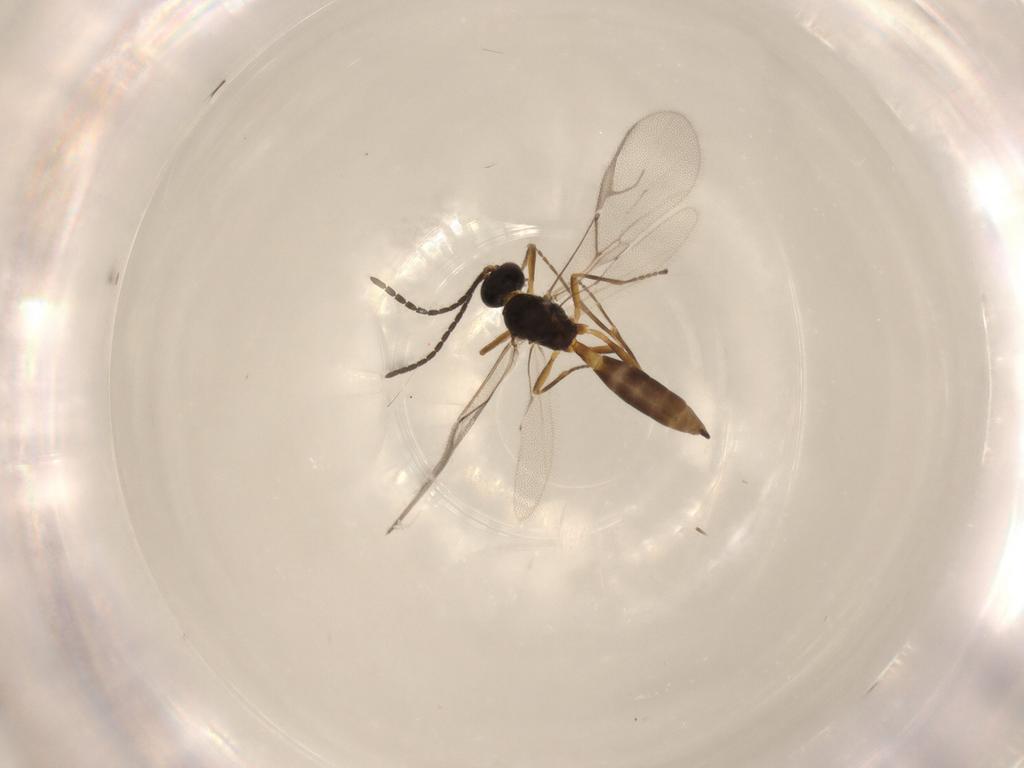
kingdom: Animalia
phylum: Arthropoda
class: Insecta
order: Hymenoptera
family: Braconidae
